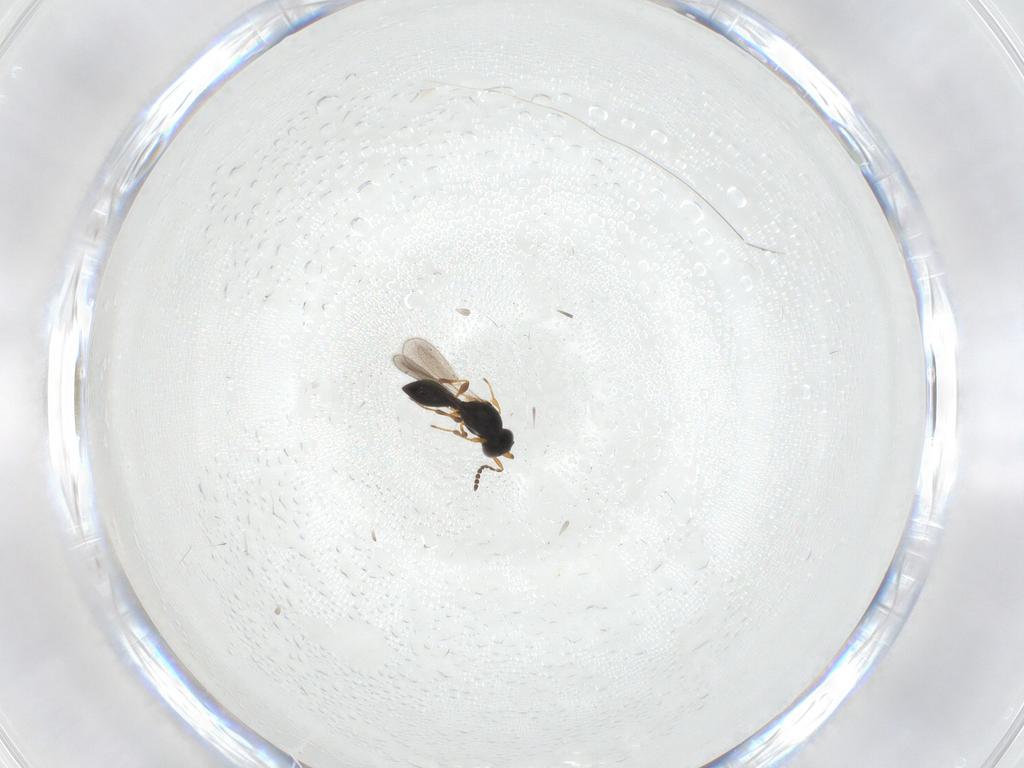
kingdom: Animalia
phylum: Arthropoda
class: Insecta
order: Hymenoptera
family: Platygastridae
